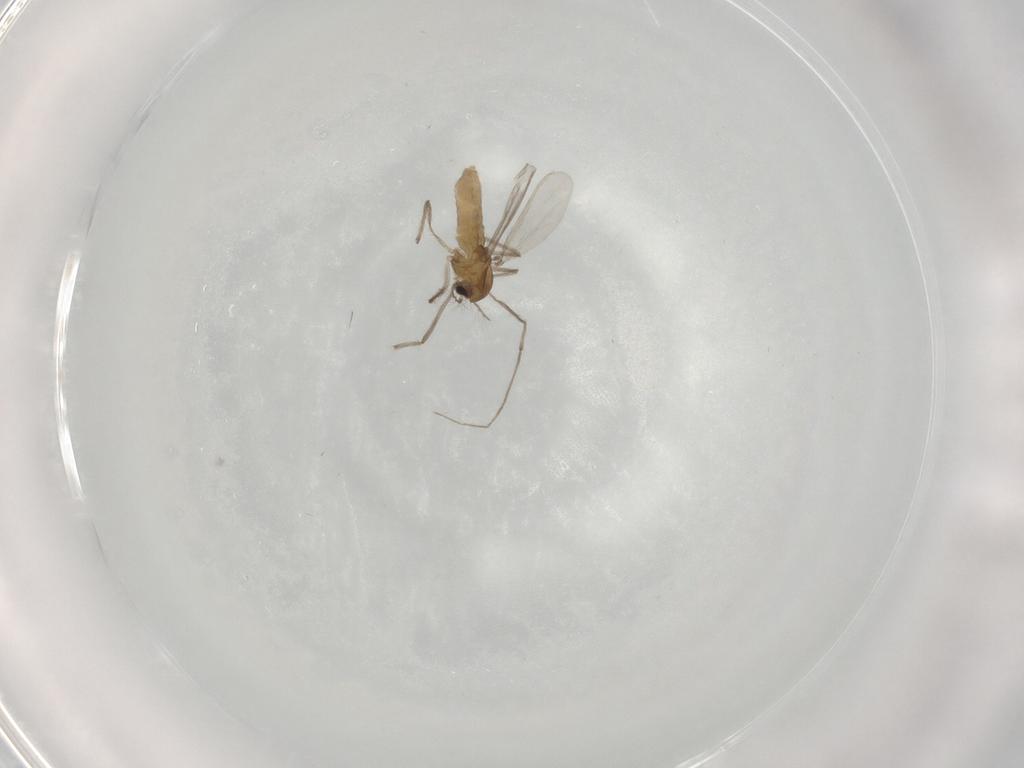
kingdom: Animalia
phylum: Arthropoda
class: Insecta
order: Diptera
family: Chironomidae
